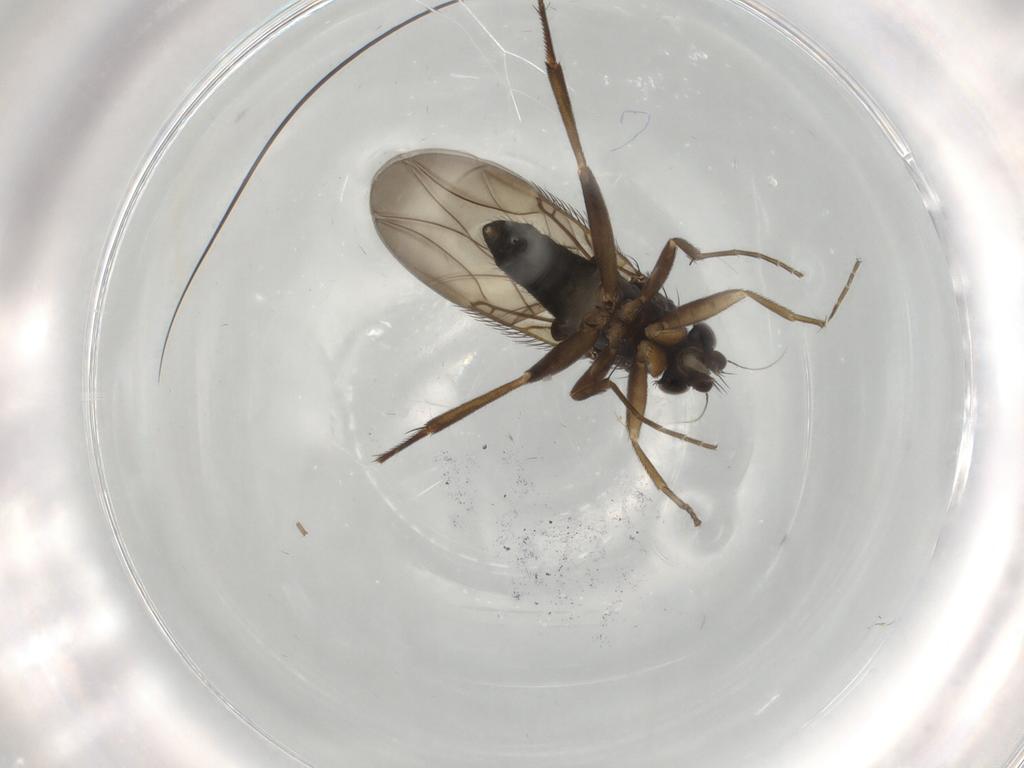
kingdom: Animalia
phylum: Arthropoda
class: Insecta
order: Diptera
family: Phoridae
